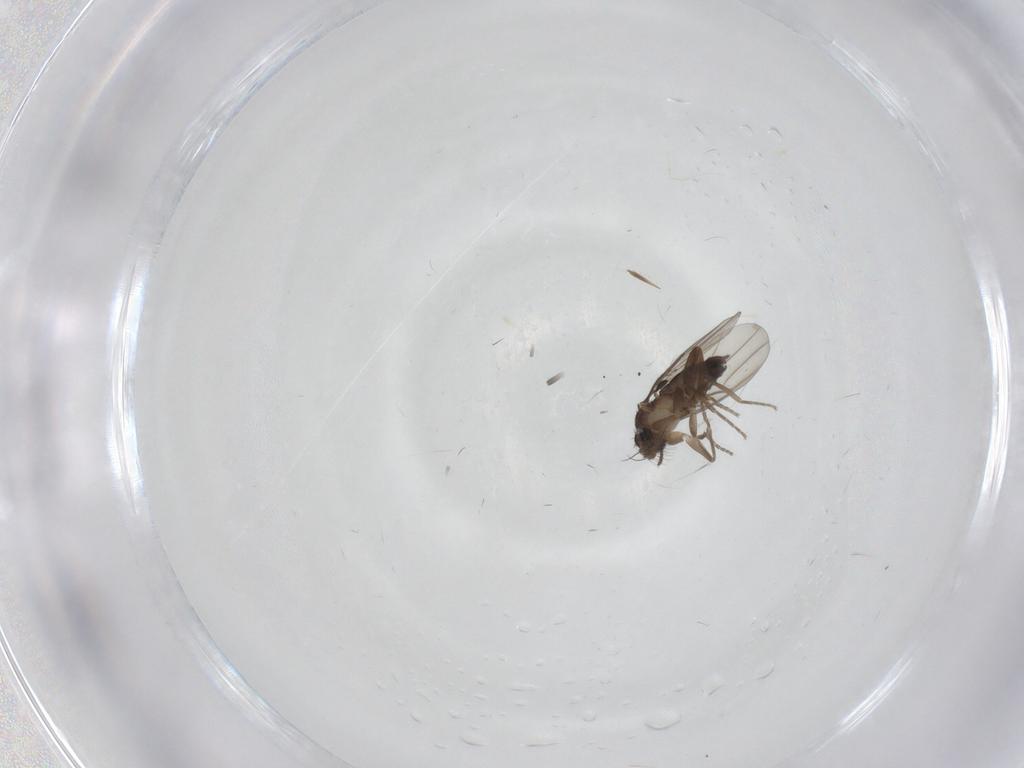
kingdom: Animalia
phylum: Arthropoda
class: Insecta
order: Diptera
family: Ceratopogonidae
